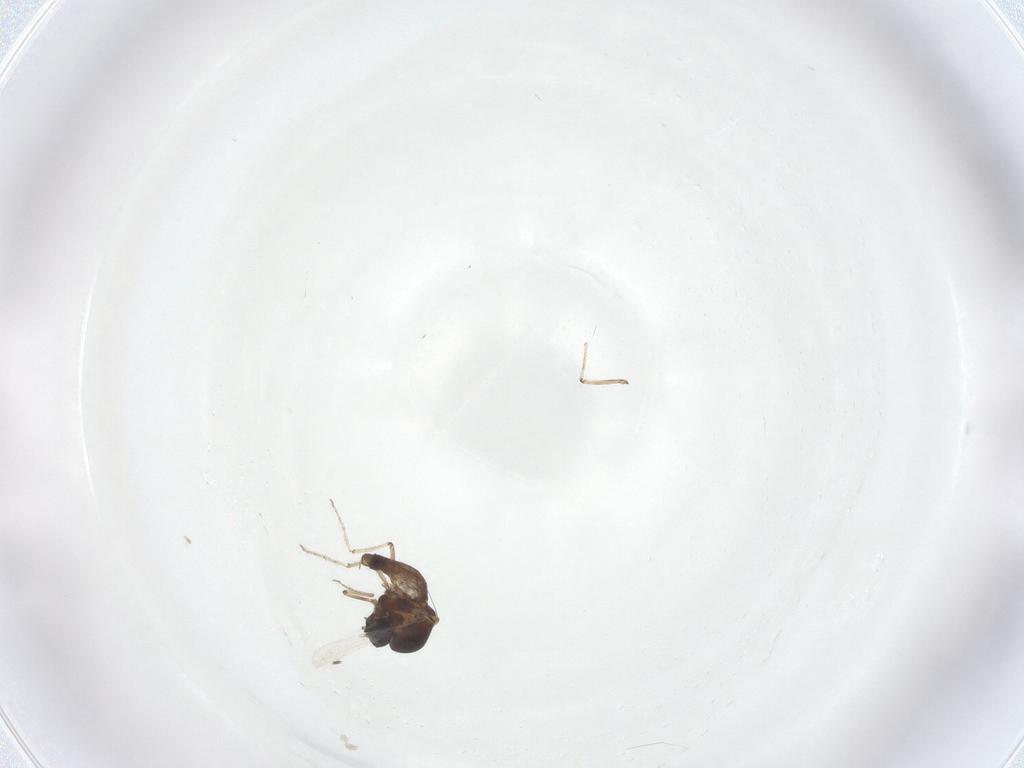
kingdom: Animalia
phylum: Arthropoda
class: Insecta
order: Diptera
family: Ceratopogonidae
